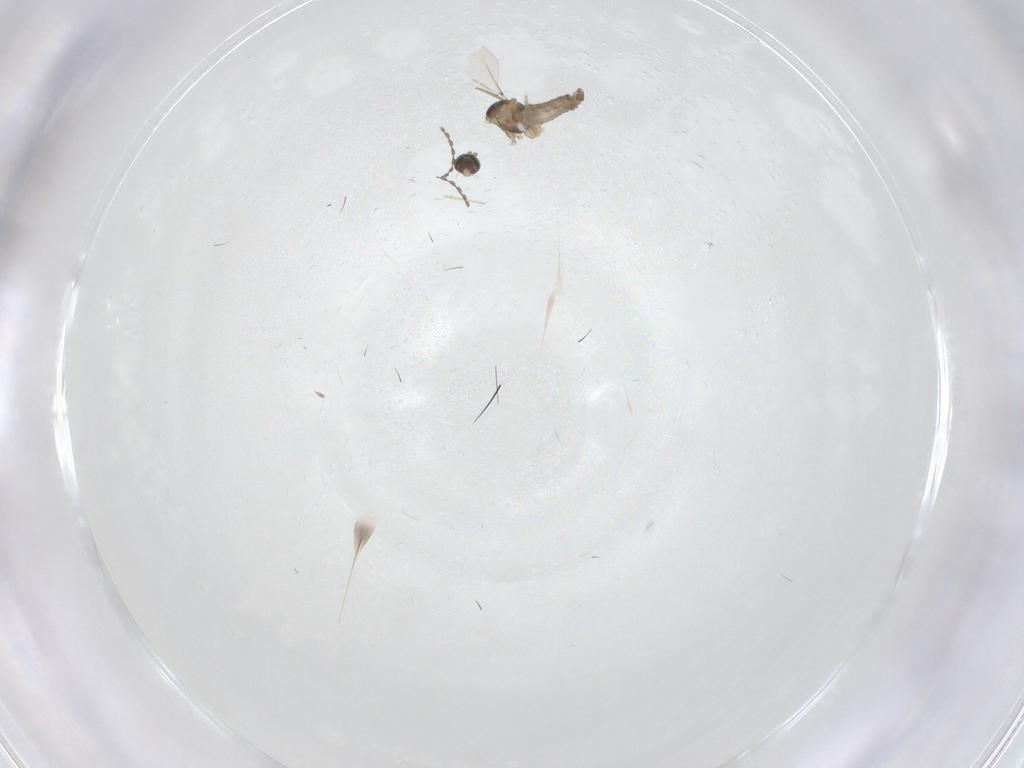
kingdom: Animalia
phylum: Arthropoda
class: Insecta
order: Diptera
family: Cecidomyiidae
